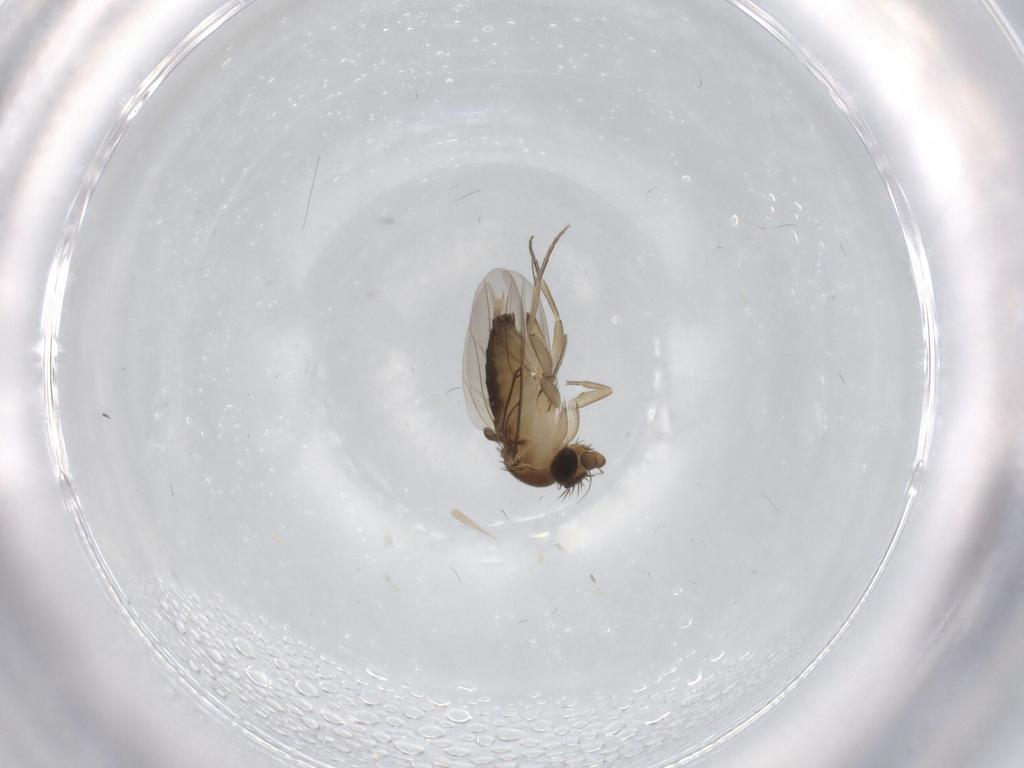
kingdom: Animalia
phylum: Arthropoda
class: Insecta
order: Diptera
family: Phoridae
